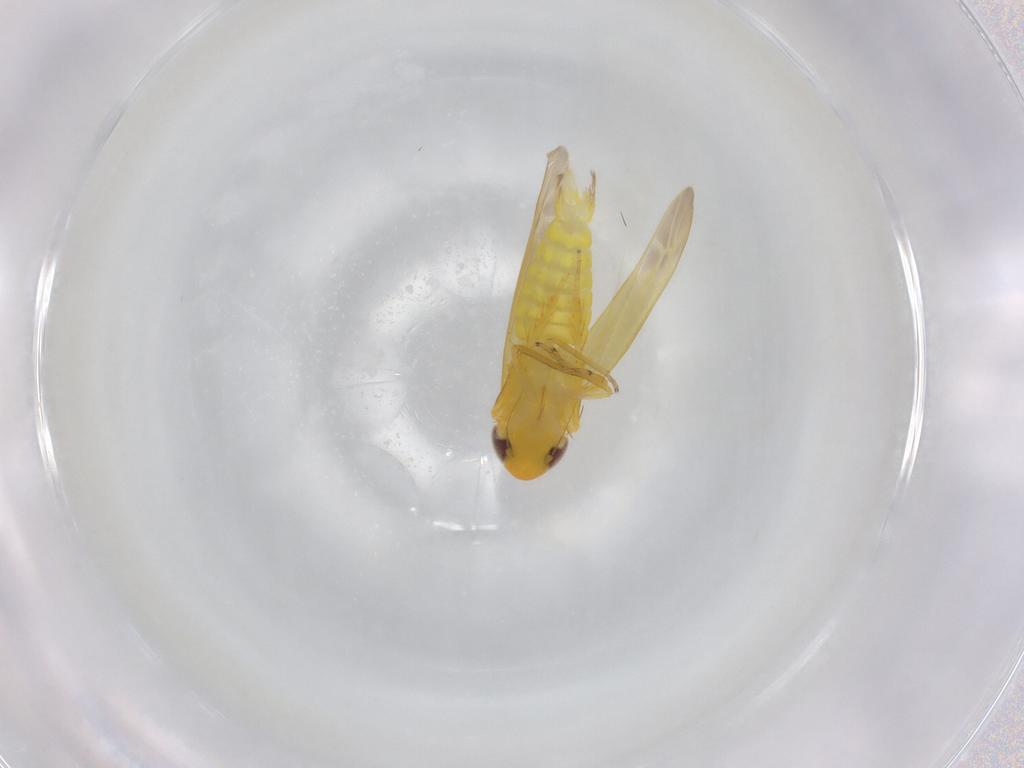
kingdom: Animalia
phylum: Arthropoda
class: Insecta
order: Hemiptera
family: Cicadellidae
